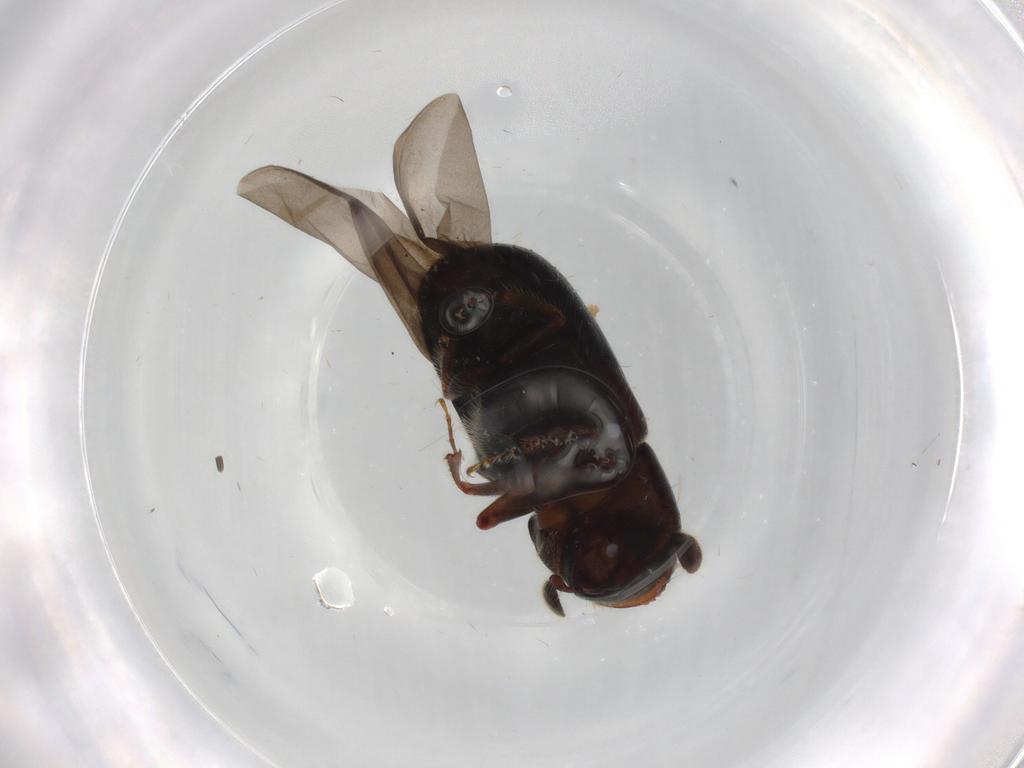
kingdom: Animalia
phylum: Arthropoda
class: Insecta
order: Coleoptera
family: Curculionidae
